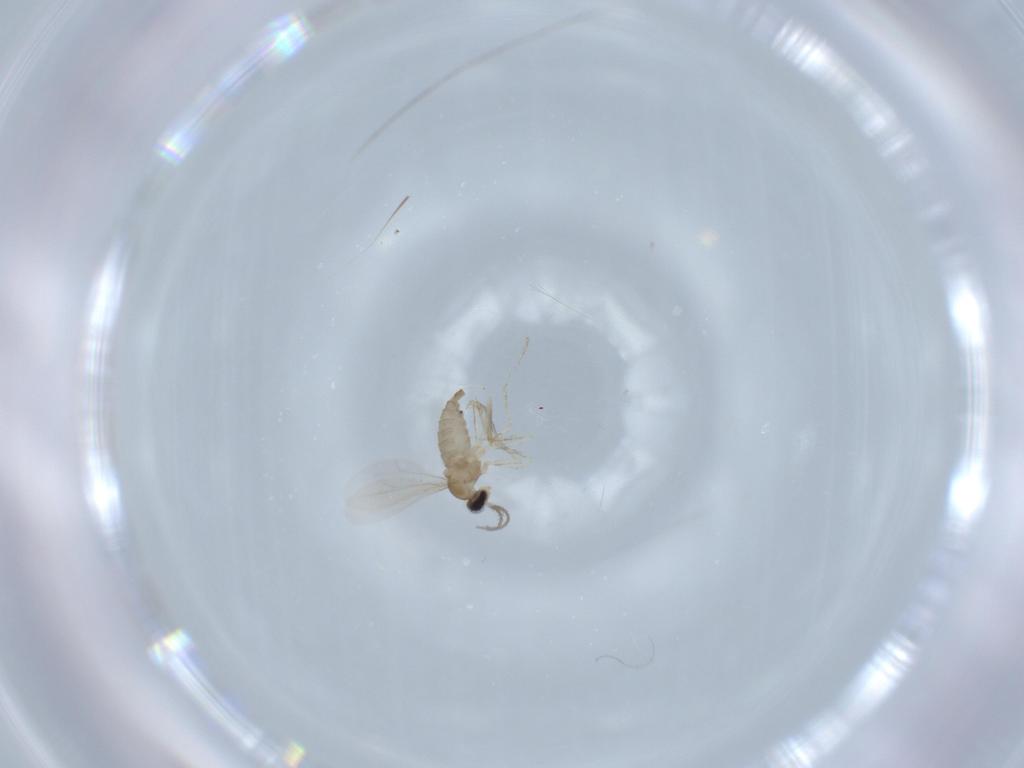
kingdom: Animalia
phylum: Arthropoda
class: Insecta
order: Diptera
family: Cecidomyiidae
